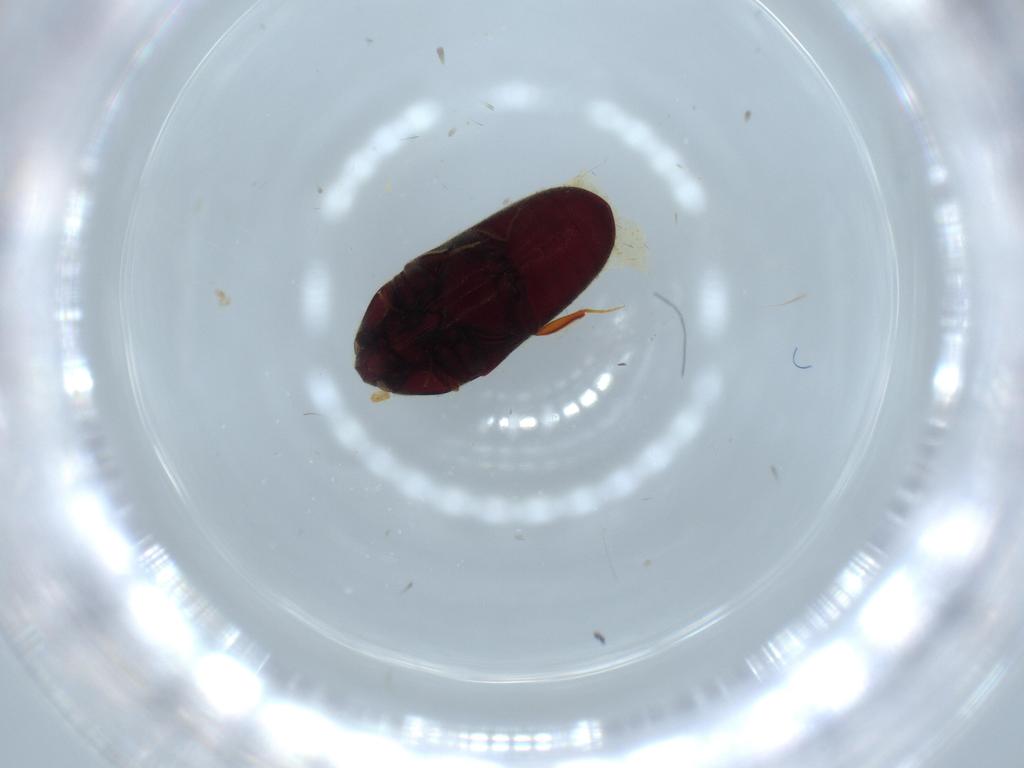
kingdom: Animalia
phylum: Arthropoda
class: Insecta
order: Coleoptera
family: Throscidae
